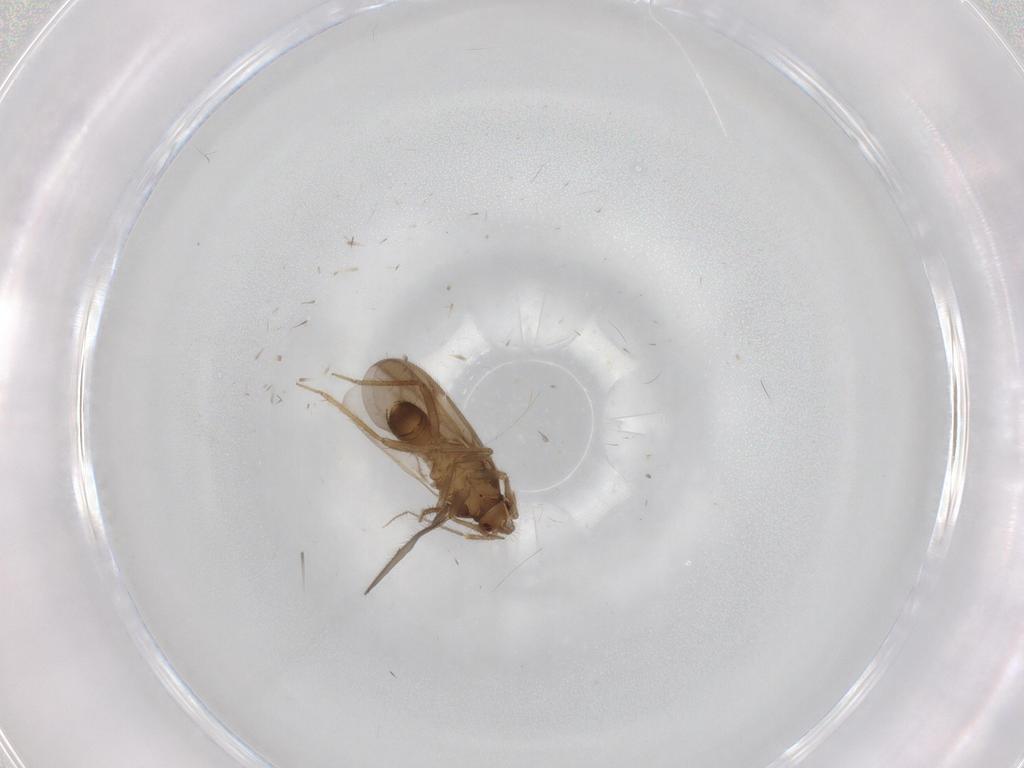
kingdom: Animalia
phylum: Arthropoda
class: Insecta
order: Hemiptera
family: Ceratocombidae
